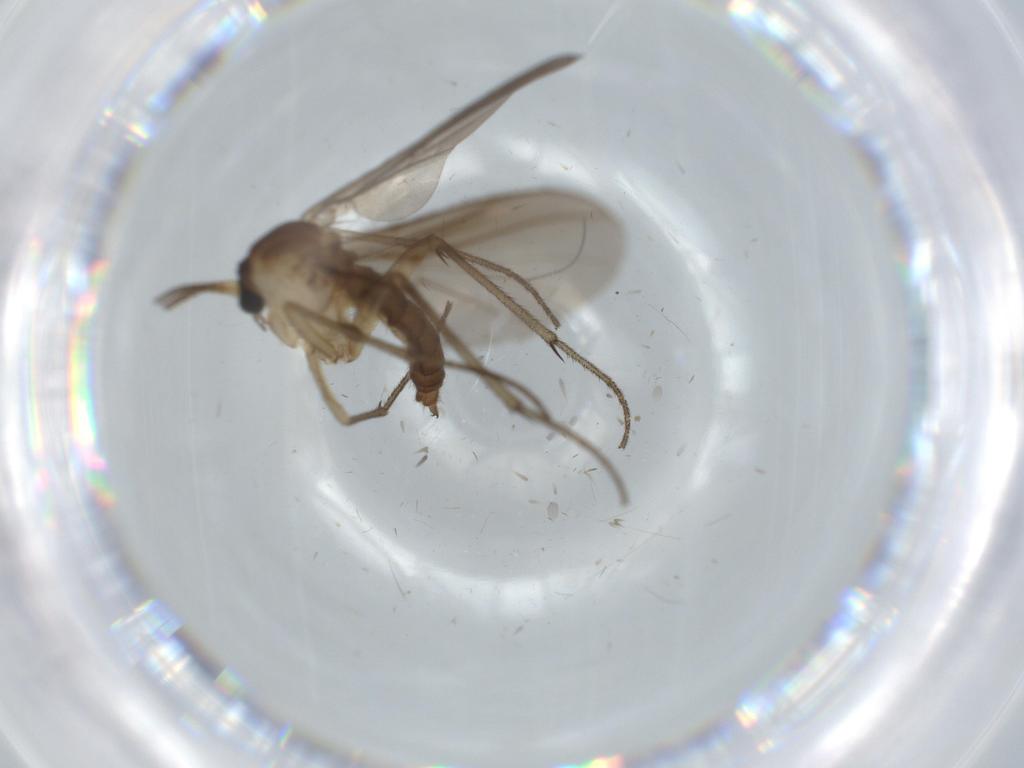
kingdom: Animalia
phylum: Arthropoda
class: Insecta
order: Diptera
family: Diadocidiidae
